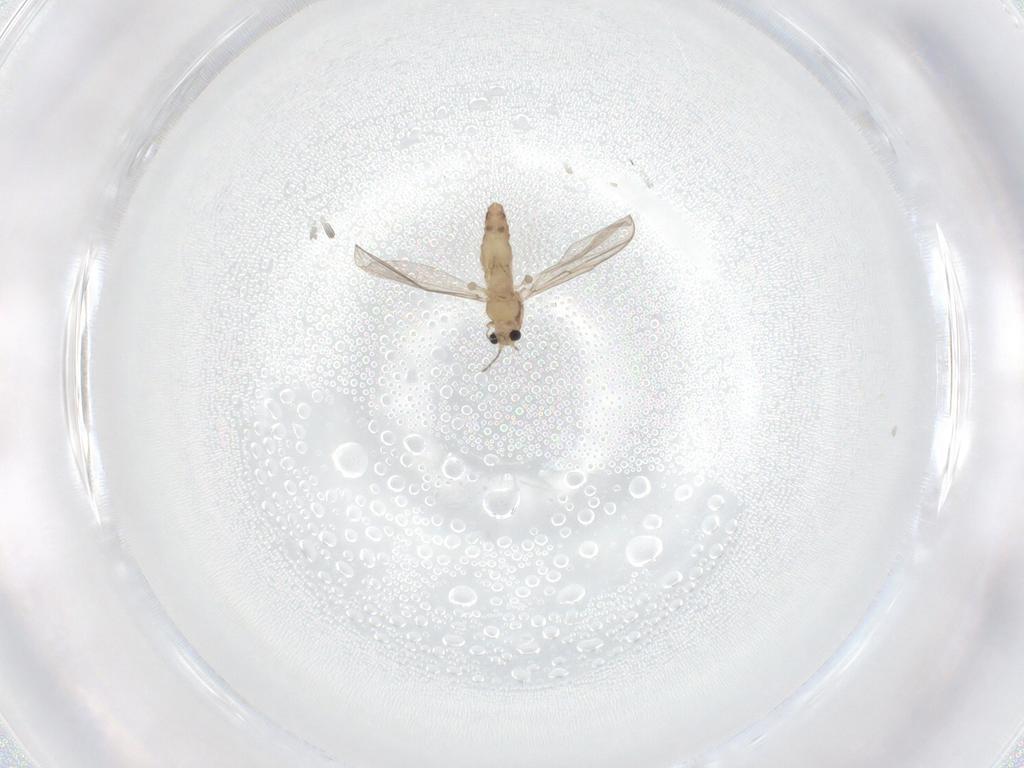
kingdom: Animalia
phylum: Arthropoda
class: Insecta
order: Diptera
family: Chironomidae
